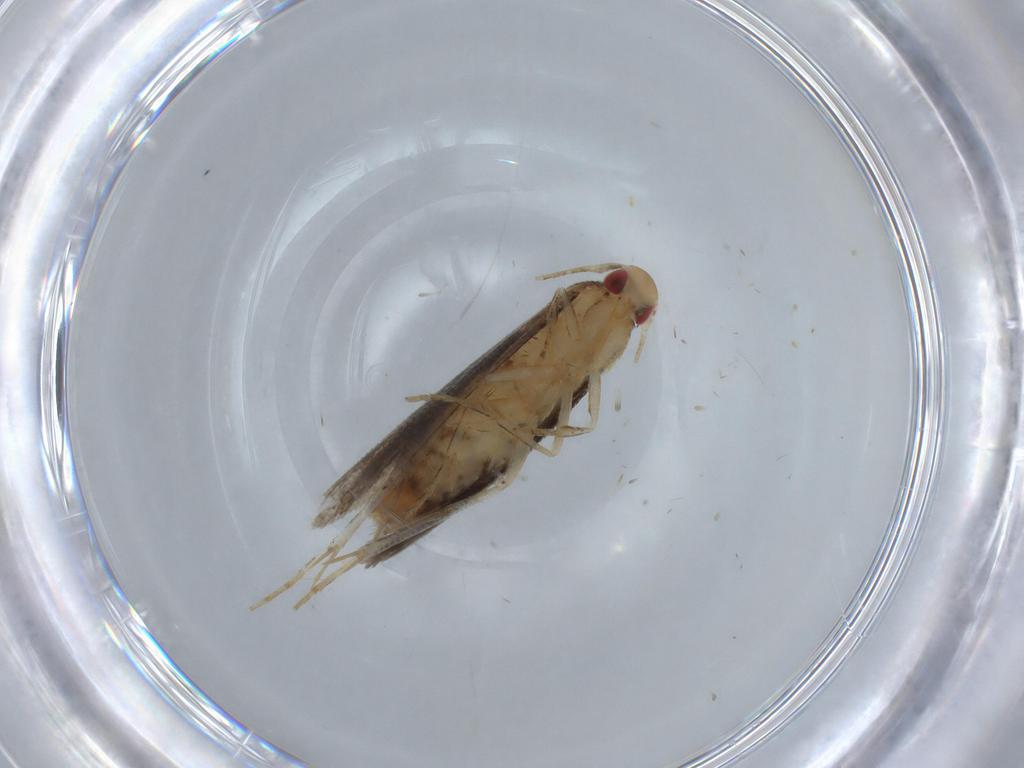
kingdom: Animalia
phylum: Arthropoda
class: Insecta
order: Lepidoptera
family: Momphidae
